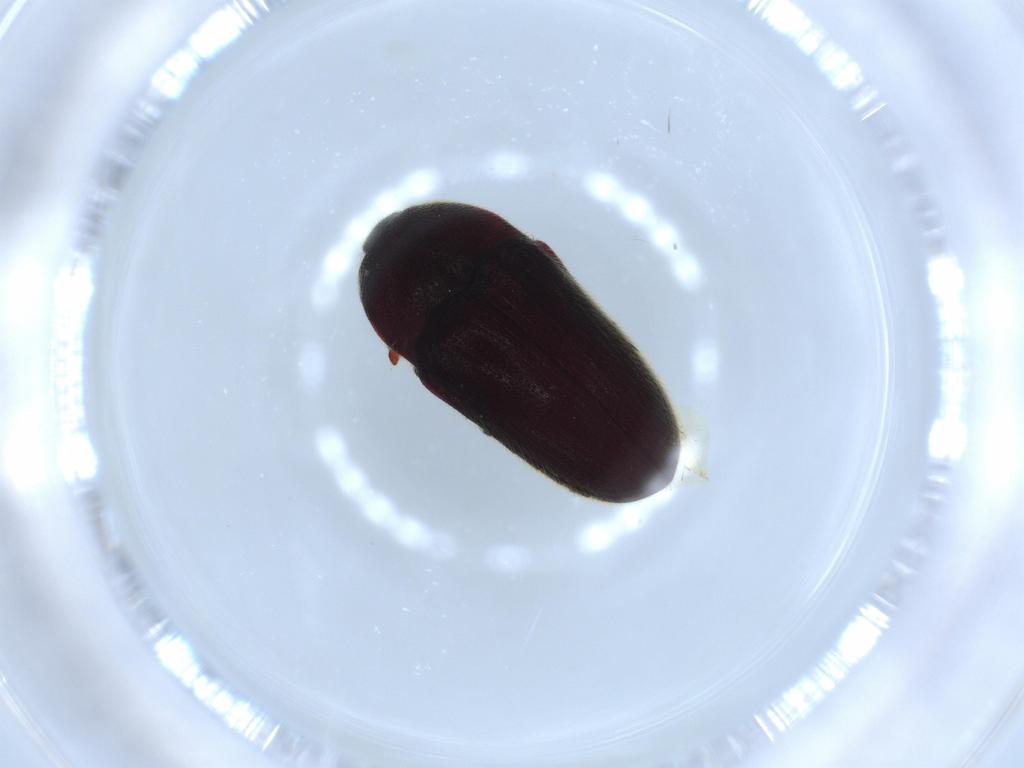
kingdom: Animalia
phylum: Arthropoda
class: Insecta
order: Coleoptera
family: Throscidae
